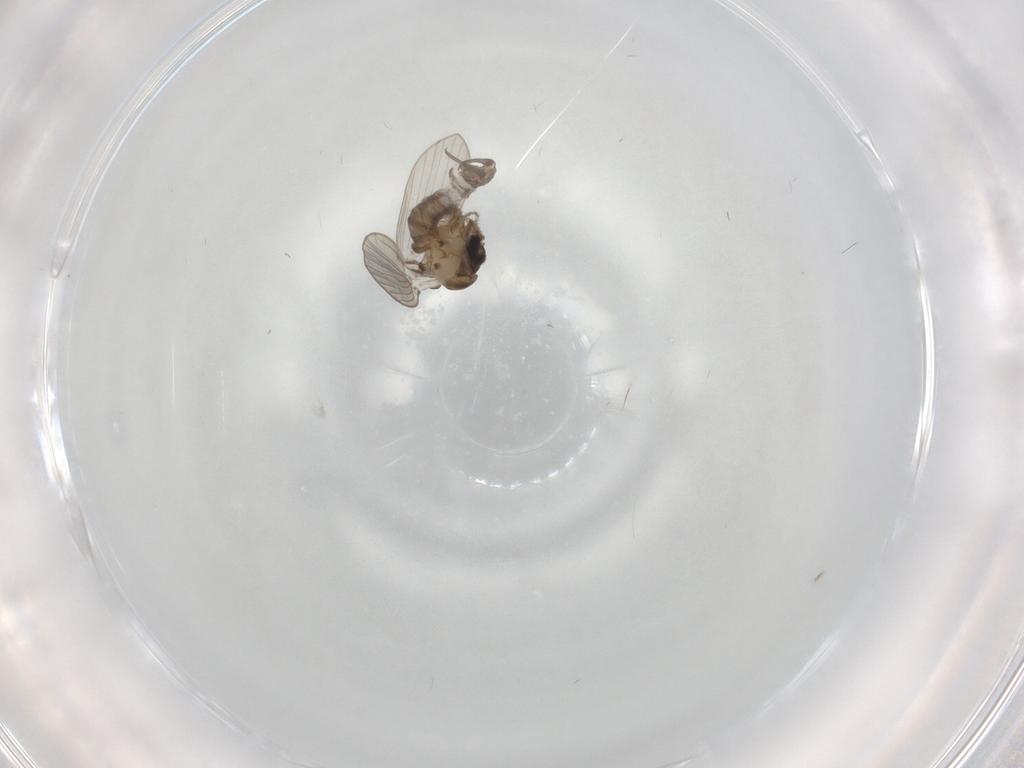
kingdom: Animalia
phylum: Arthropoda
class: Insecta
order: Diptera
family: Psychodidae
